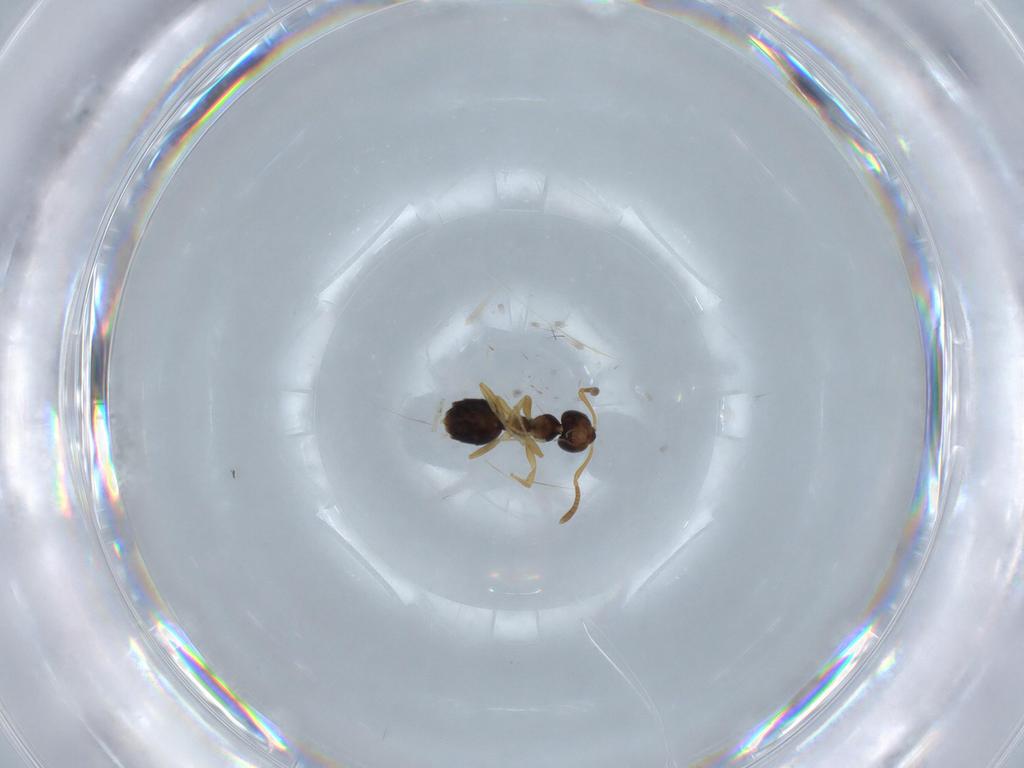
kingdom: Animalia
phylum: Arthropoda
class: Insecta
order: Hymenoptera
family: Formicidae
